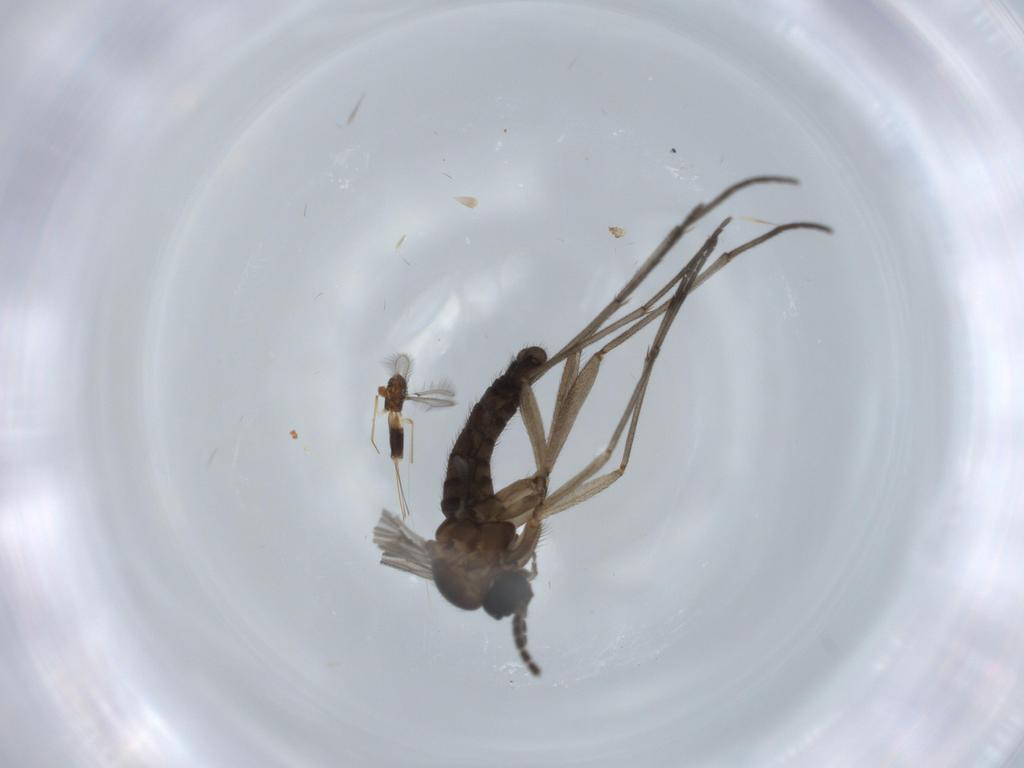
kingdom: Animalia
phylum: Arthropoda
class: Insecta
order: Diptera
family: Sciaridae
